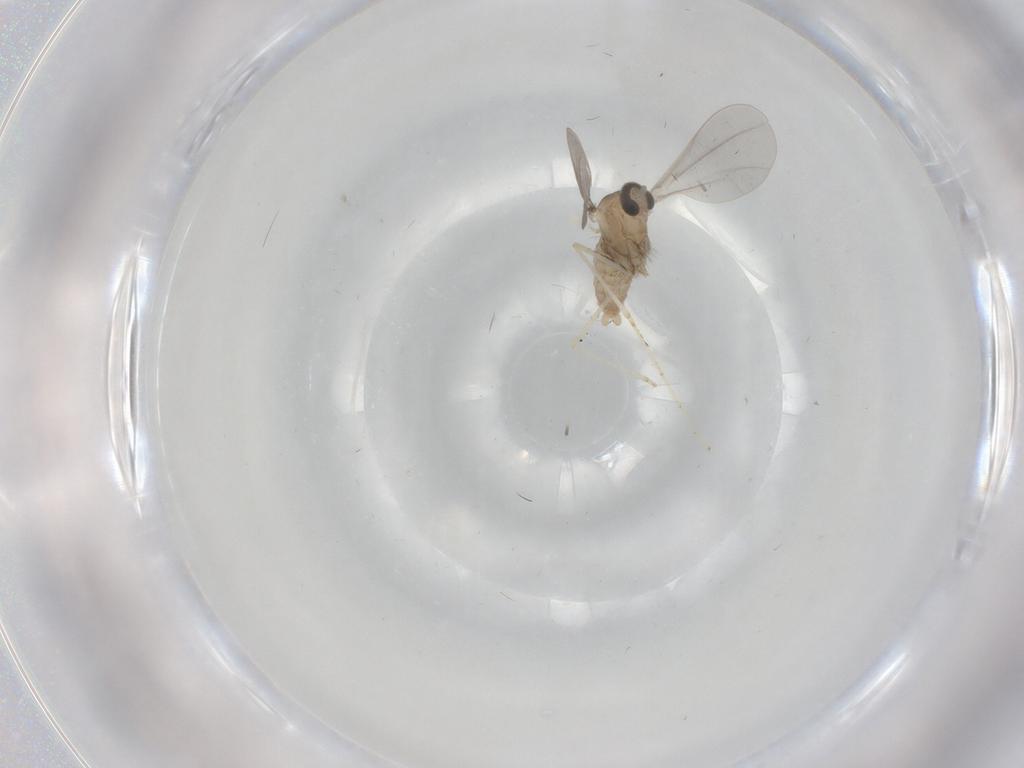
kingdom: Animalia
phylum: Arthropoda
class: Insecta
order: Diptera
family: Cecidomyiidae
